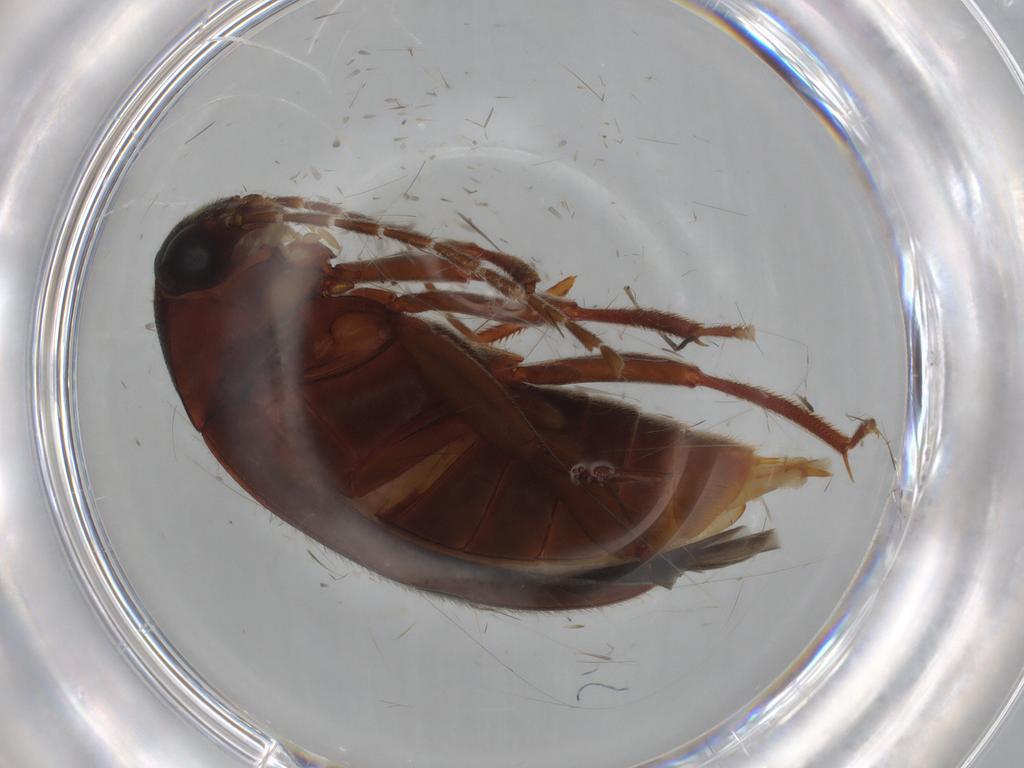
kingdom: Animalia
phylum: Arthropoda
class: Insecta
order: Coleoptera
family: Ptilodactylidae
